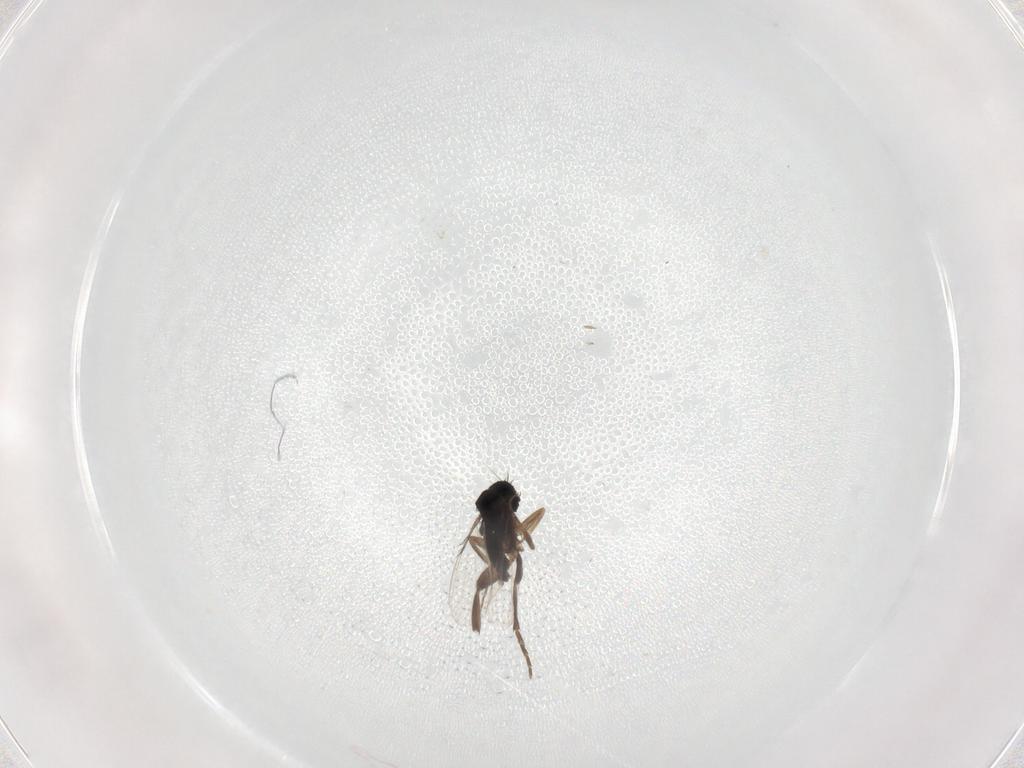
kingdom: Animalia
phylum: Arthropoda
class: Insecta
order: Diptera
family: Phoridae
